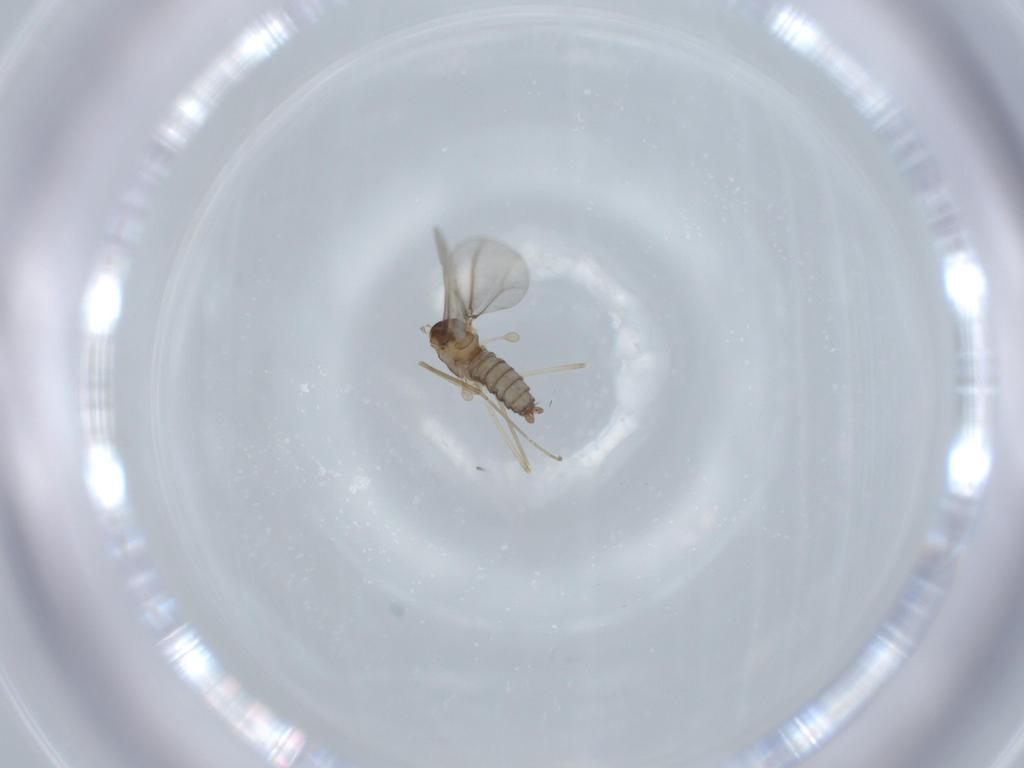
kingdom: Animalia
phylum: Arthropoda
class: Insecta
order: Diptera
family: Cecidomyiidae
